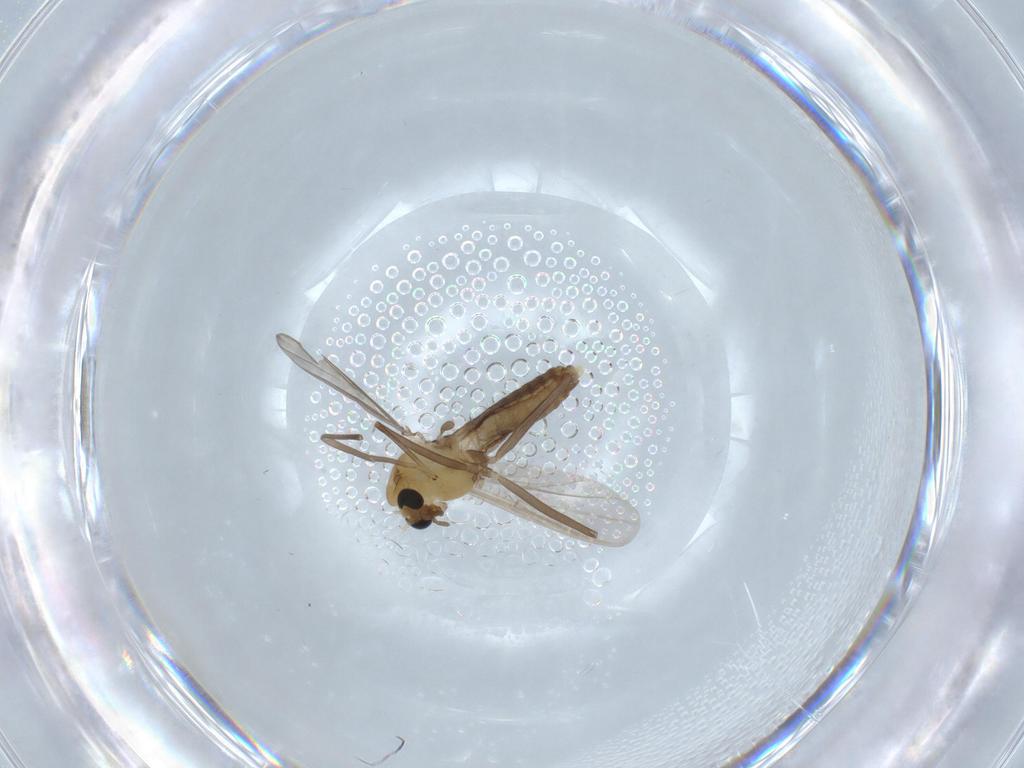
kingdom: Animalia
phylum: Arthropoda
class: Insecta
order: Diptera
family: Chironomidae
